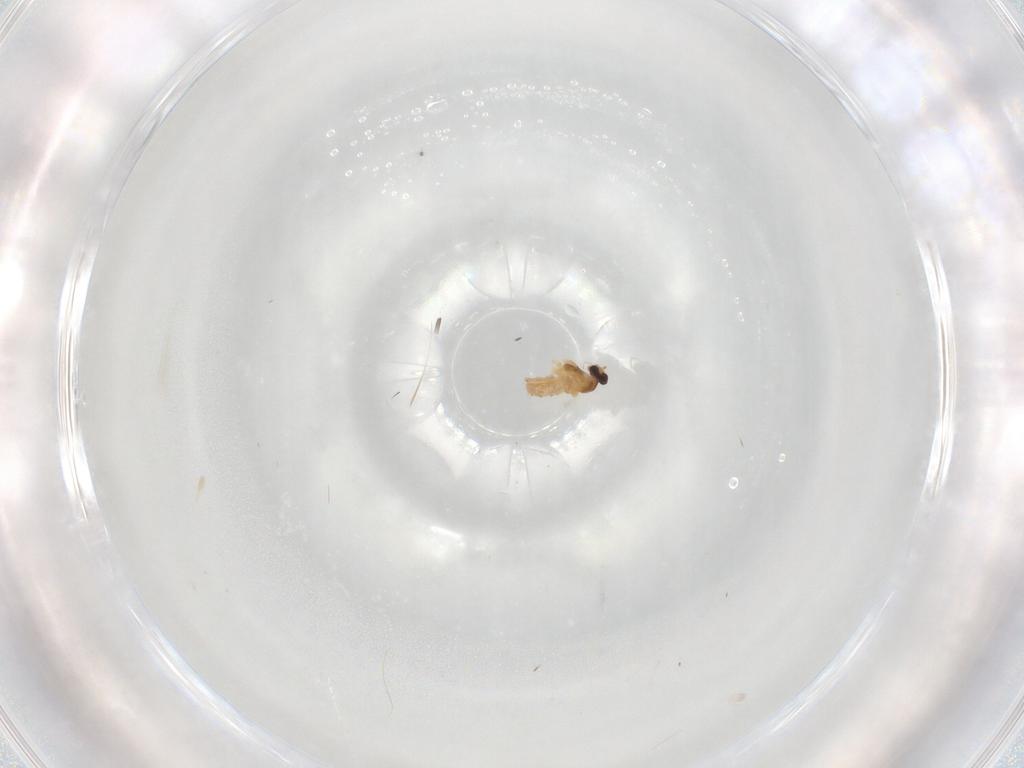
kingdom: Animalia
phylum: Arthropoda
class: Insecta
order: Diptera
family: Cecidomyiidae
